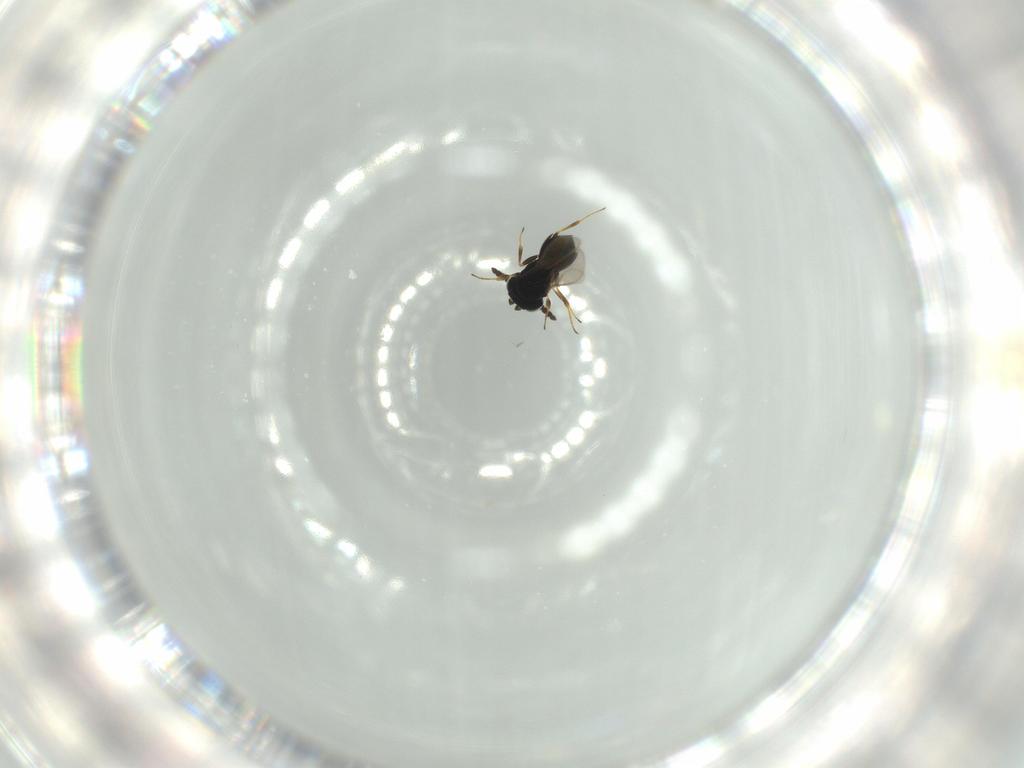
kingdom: Animalia
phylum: Arthropoda
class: Insecta
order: Hymenoptera
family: Scelionidae
